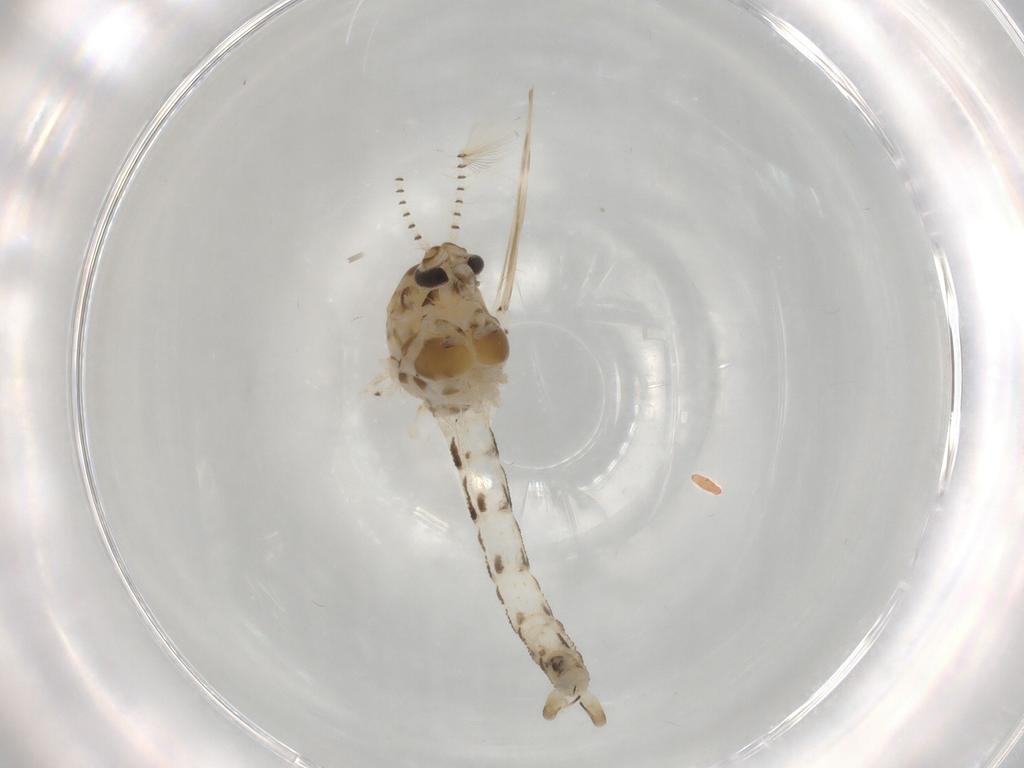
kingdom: Animalia
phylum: Arthropoda
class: Insecta
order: Diptera
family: Chaoboridae
